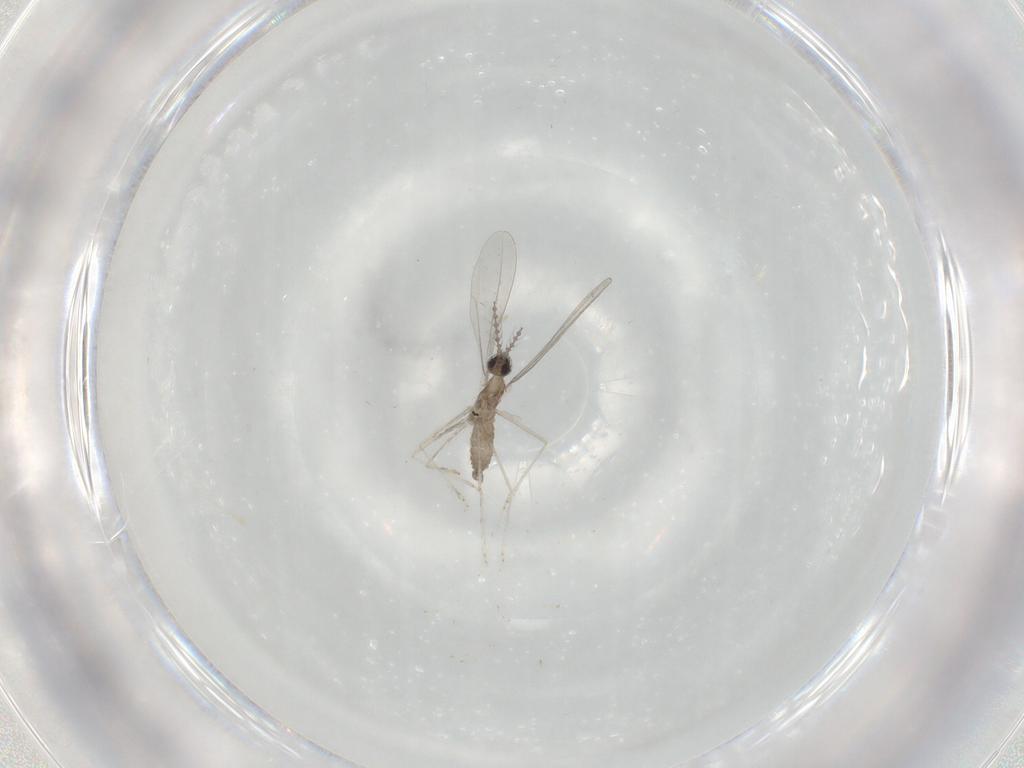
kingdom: Animalia
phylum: Arthropoda
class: Insecta
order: Diptera
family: Cecidomyiidae
